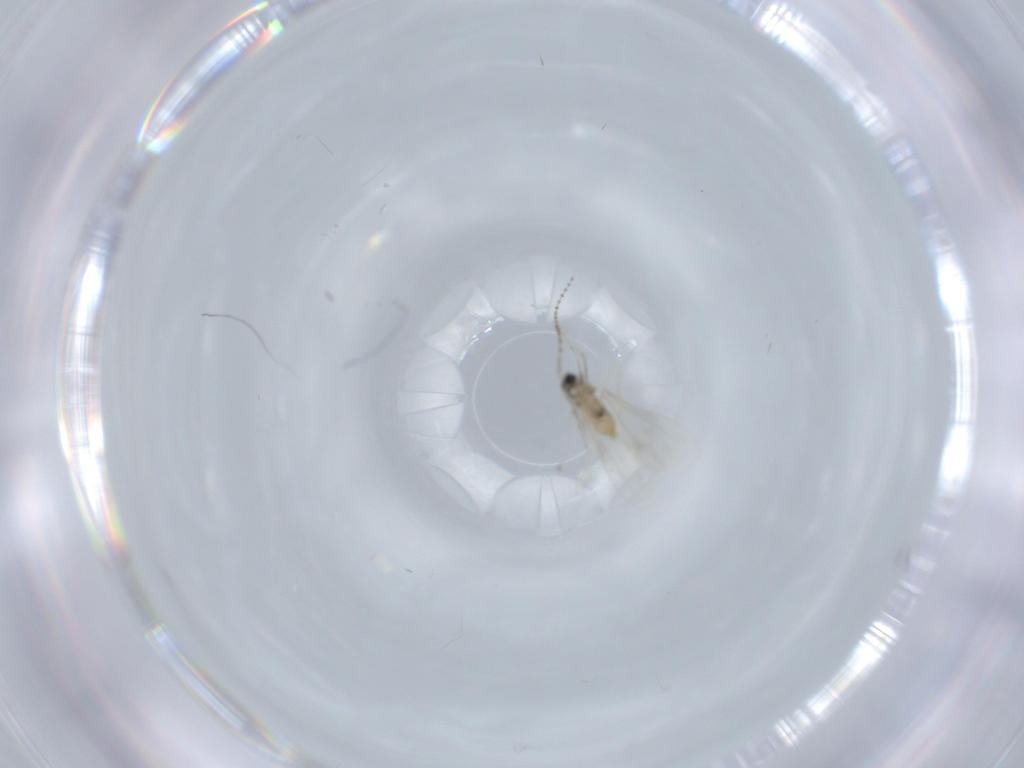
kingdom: Animalia
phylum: Arthropoda
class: Insecta
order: Diptera
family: Cecidomyiidae
